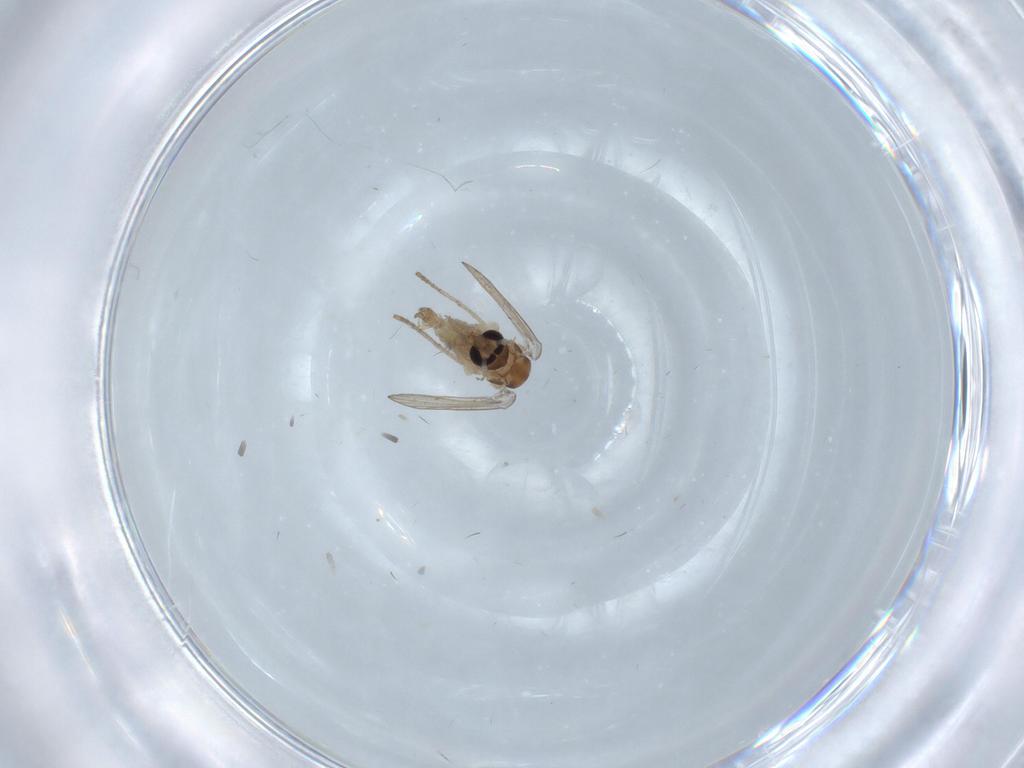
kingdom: Animalia
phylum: Arthropoda
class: Insecta
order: Diptera
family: Psychodidae
